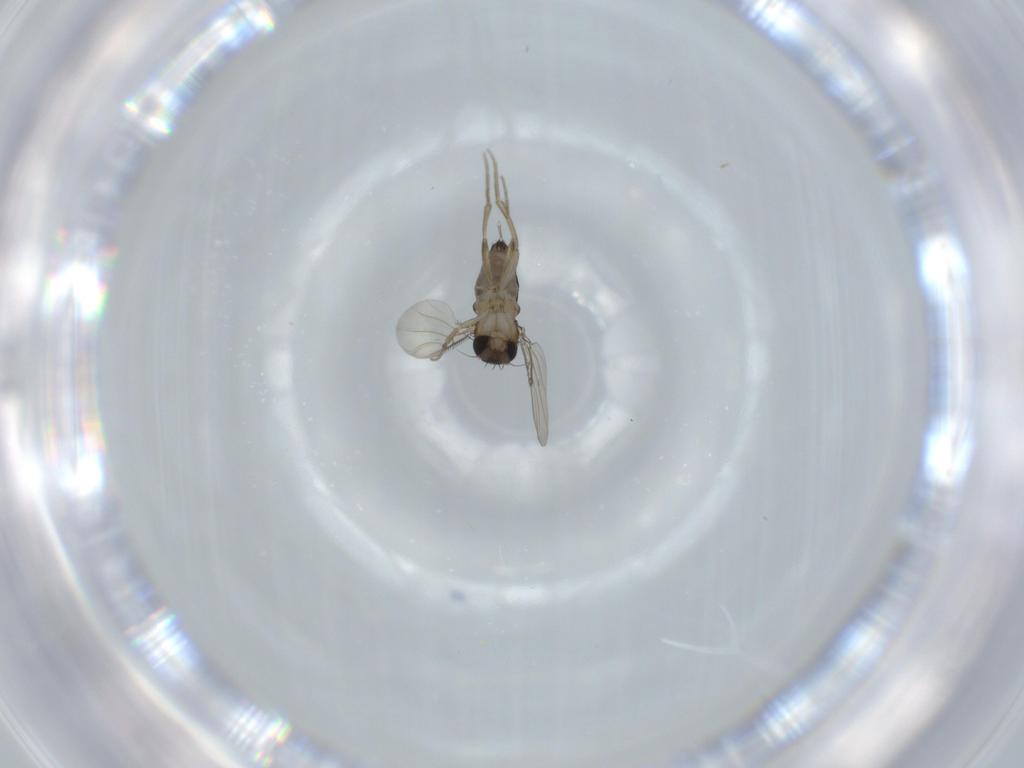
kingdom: Animalia
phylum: Arthropoda
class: Insecta
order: Diptera
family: Phoridae
